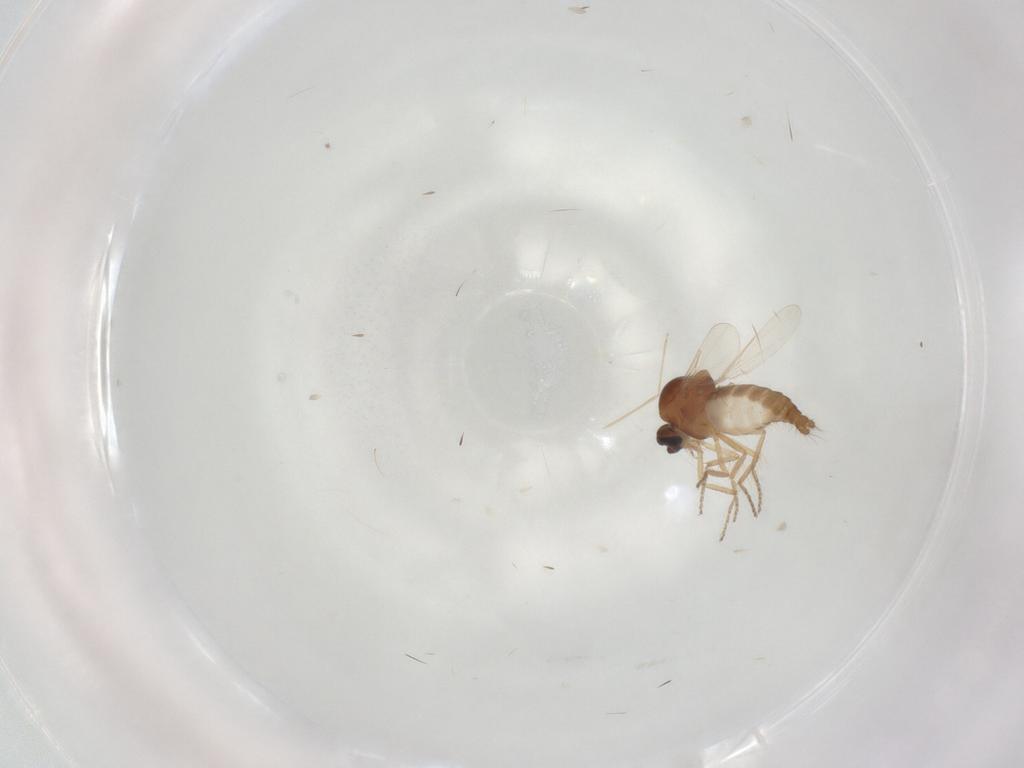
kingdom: Animalia
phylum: Arthropoda
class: Insecta
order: Diptera
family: Ceratopogonidae
